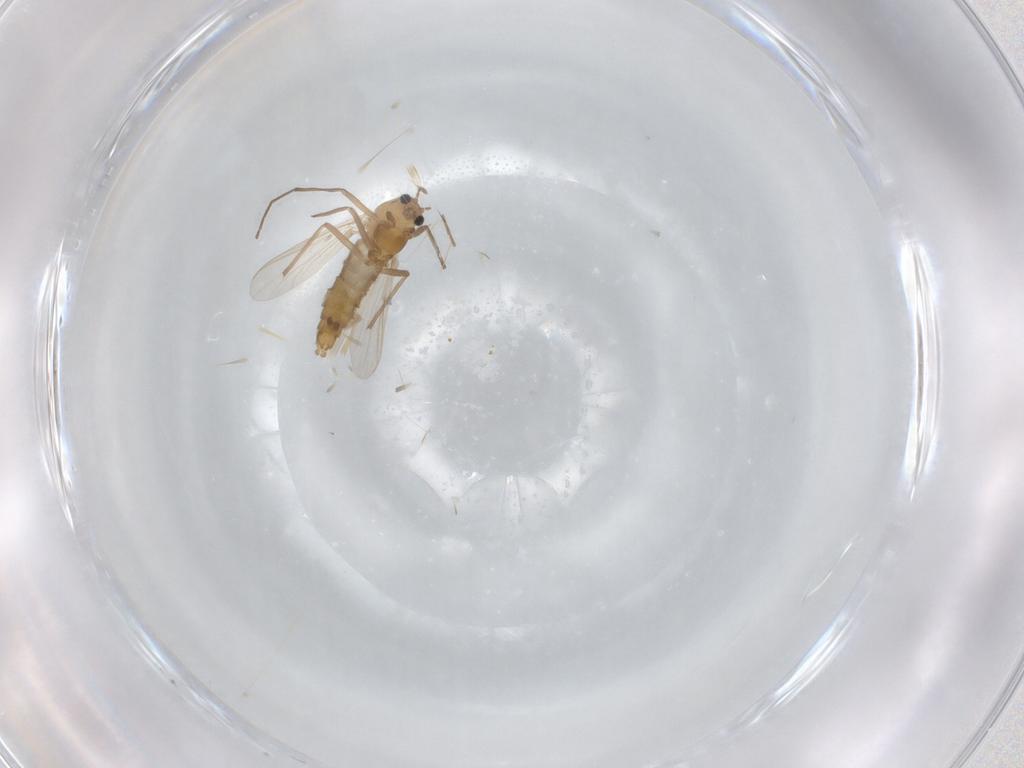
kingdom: Animalia
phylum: Arthropoda
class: Insecta
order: Diptera
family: Chironomidae
